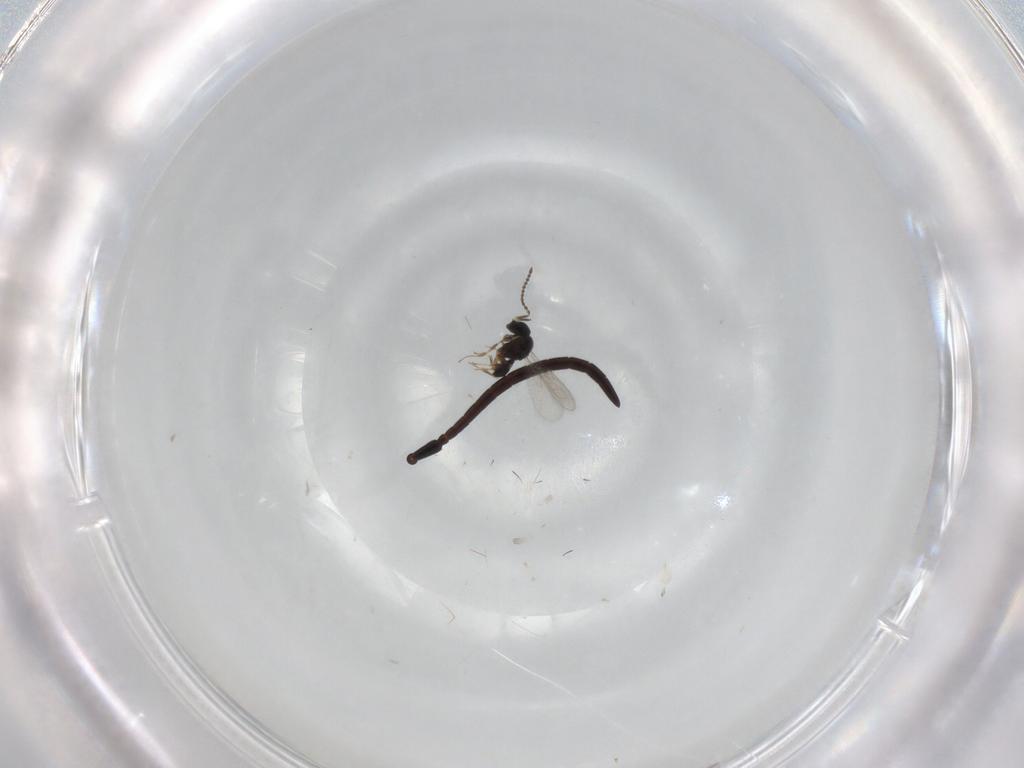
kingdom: Animalia
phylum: Arthropoda
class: Insecta
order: Hymenoptera
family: Evaniidae
